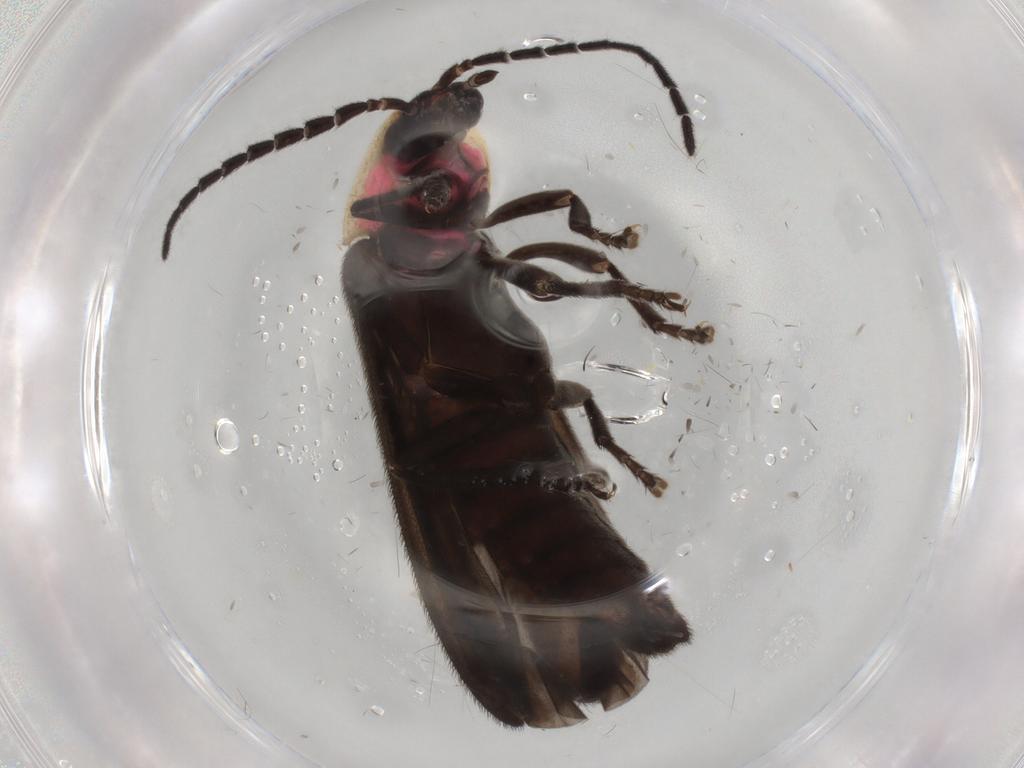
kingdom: Animalia
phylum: Arthropoda
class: Insecta
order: Coleoptera
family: Lampyridae
